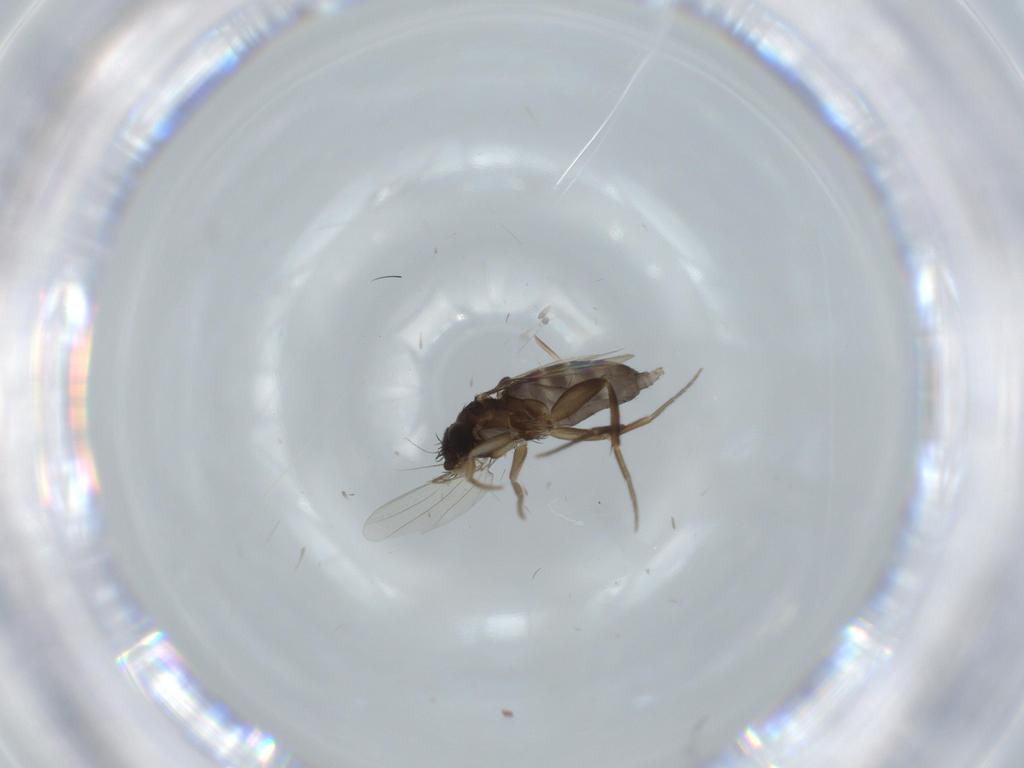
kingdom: Animalia
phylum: Arthropoda
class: Insecta
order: Diptera
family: Phoridae
